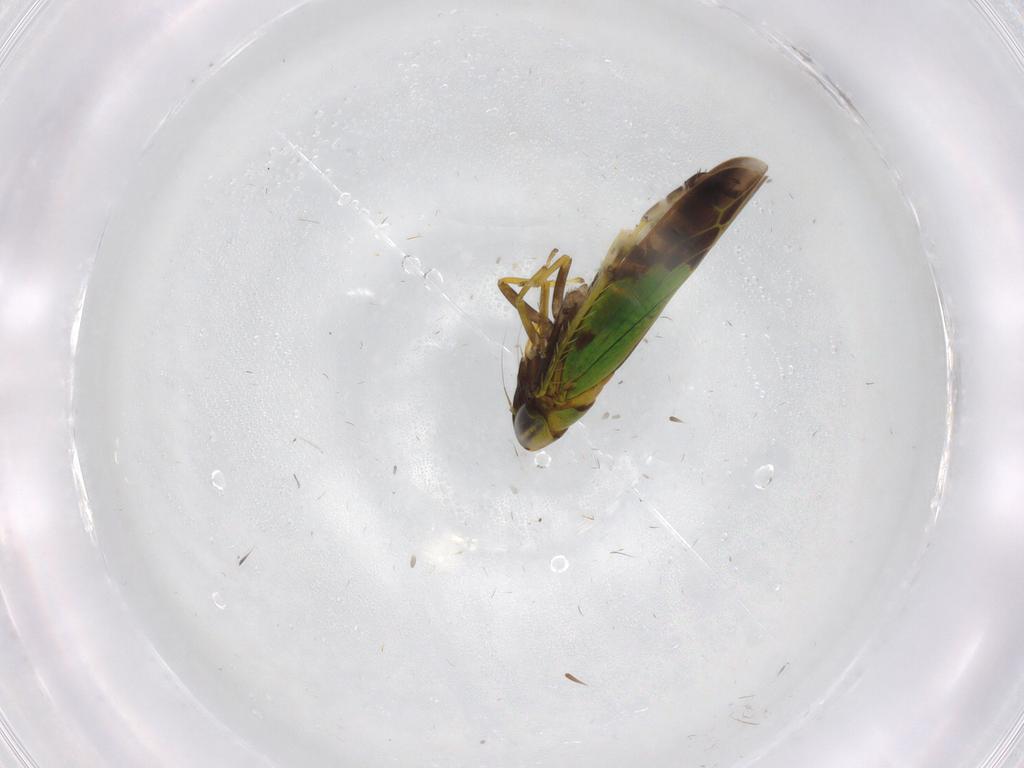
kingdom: Animalia
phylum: Arthropoda
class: Insecta
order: Hemiptera
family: Cicadellidae
